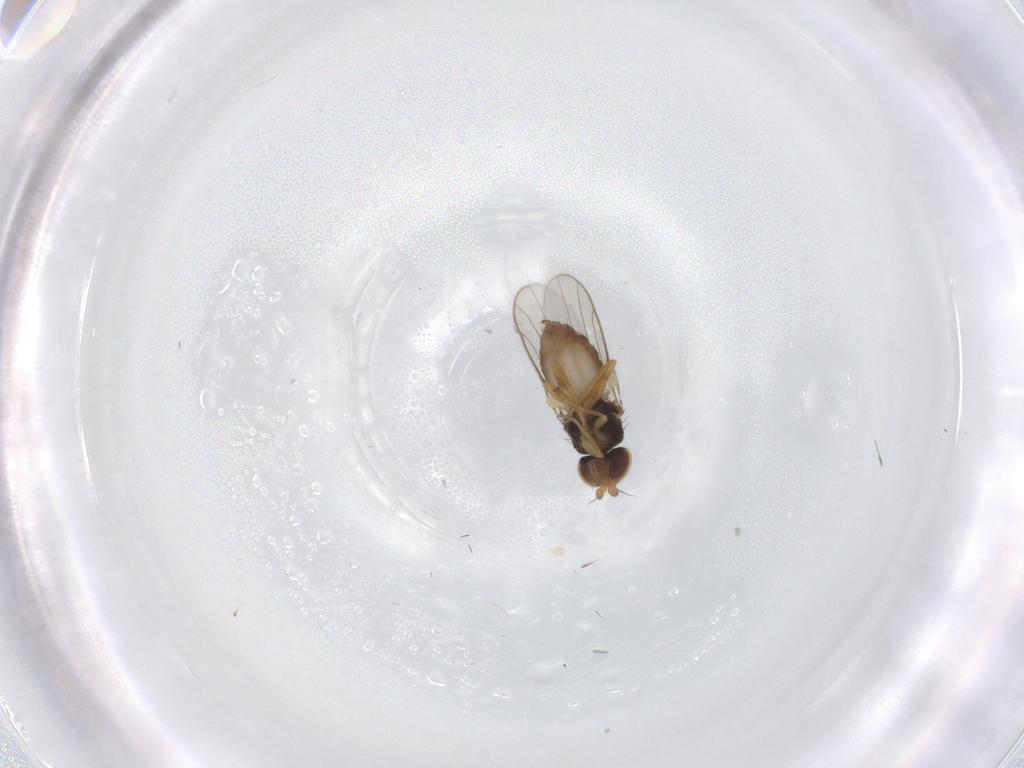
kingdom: Animalia
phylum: Arthropoda
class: Insecta
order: Diptera
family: Chloropidae
